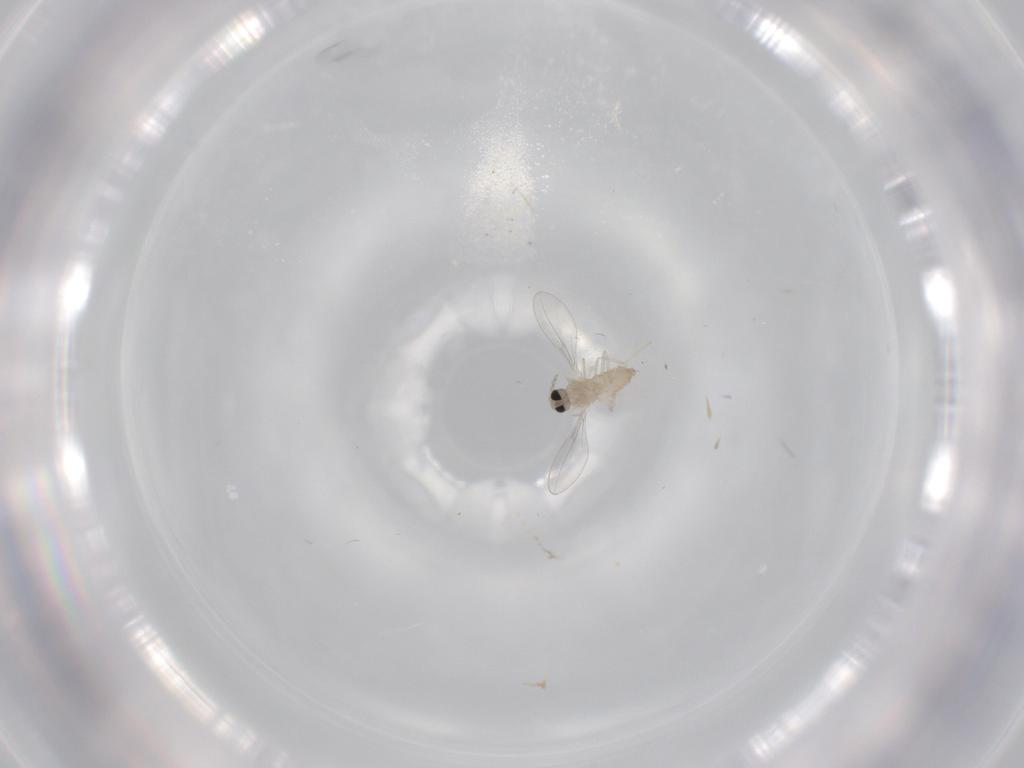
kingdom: Animalia
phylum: Arthropoda
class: Insecta
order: Diptera
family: Cecidomyiidae
